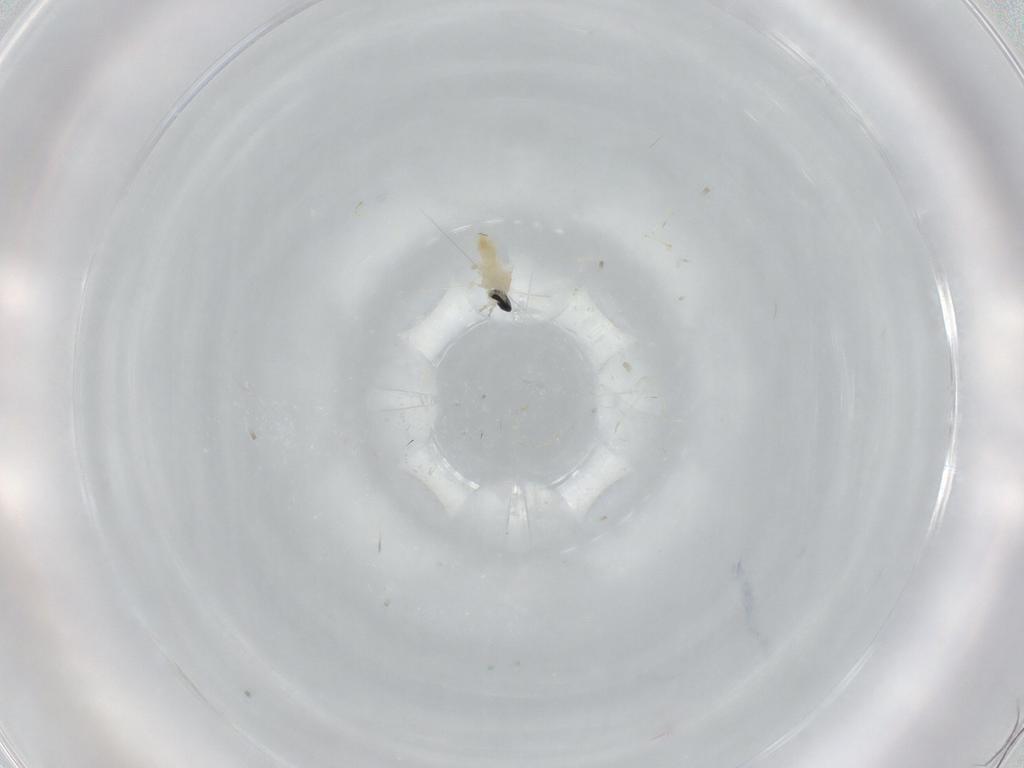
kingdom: Animalia
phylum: Arthropoda
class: Insecta
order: Diptera
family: Cecidomyiidae
